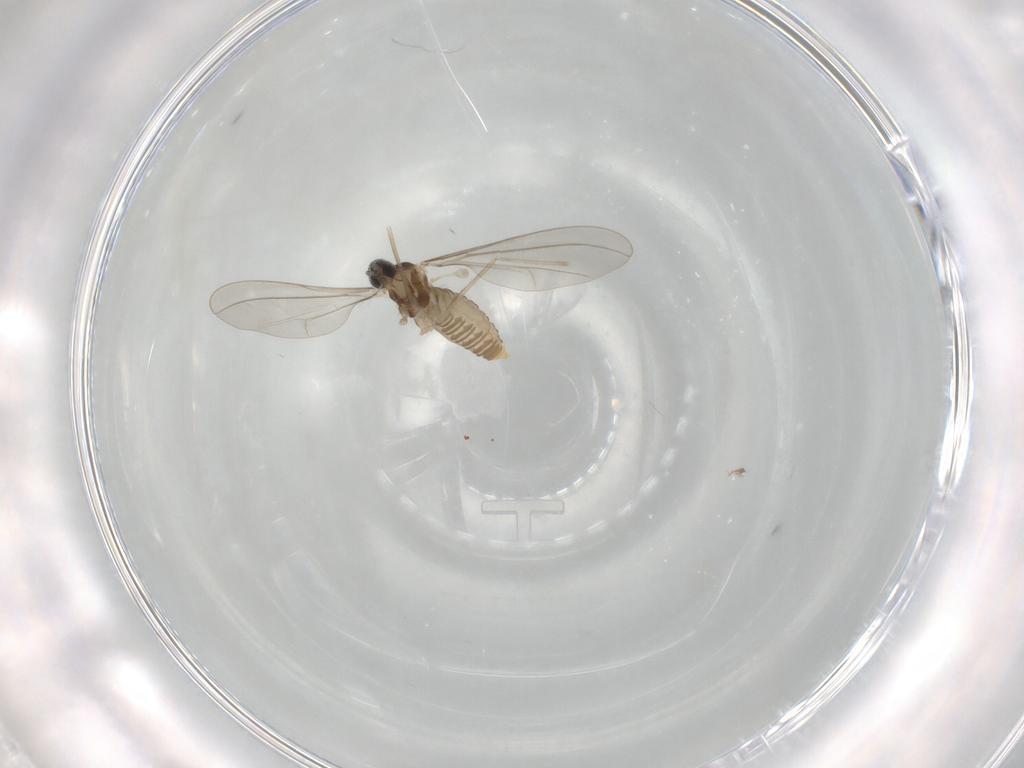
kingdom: Animalia
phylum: Arthropoda
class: Insecta
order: Diptera
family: Cecidomyiidae
